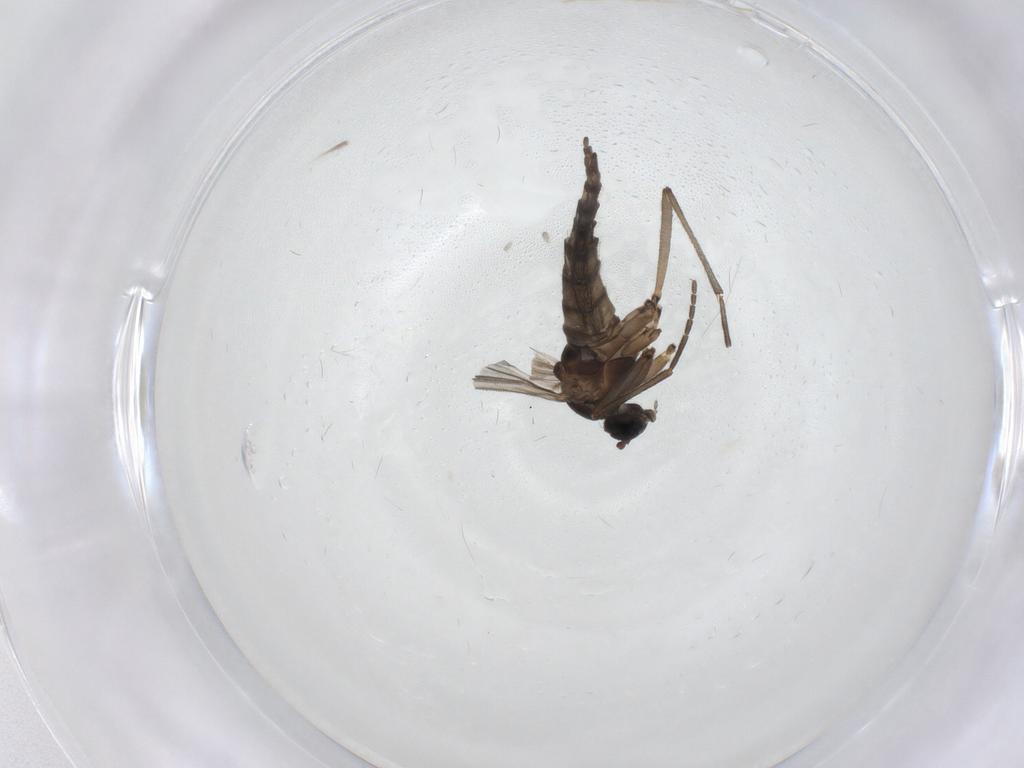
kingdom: Animalia
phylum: Arthropoda
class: Insecta
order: Diptera
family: Sciaridae
